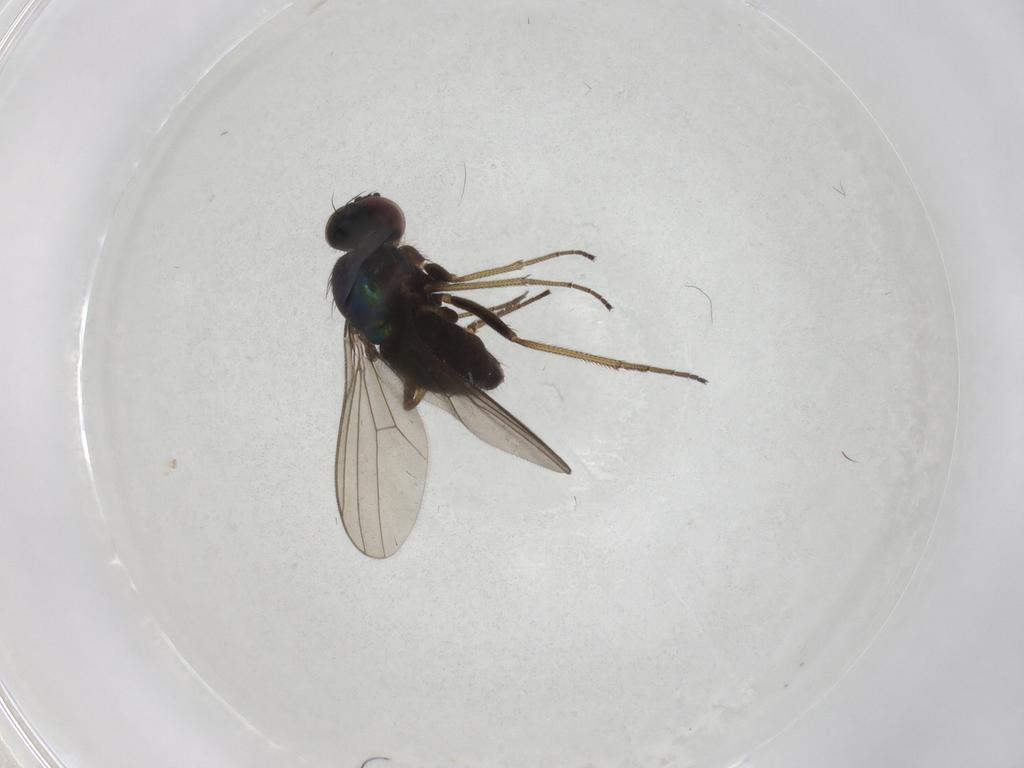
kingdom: Animalia
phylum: Arthropoda
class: Insecta
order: Diptera
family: Dolichopodidae
